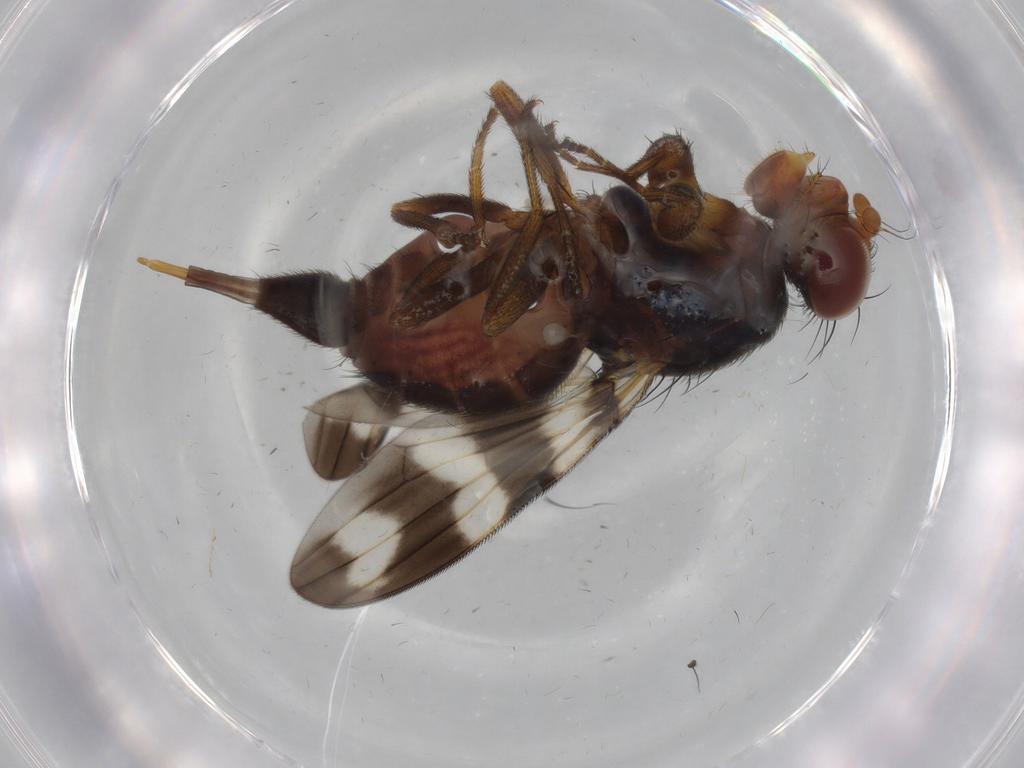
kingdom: Animalia
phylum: Arthropoda
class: Insecta
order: Diptera
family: Ulidiidae
